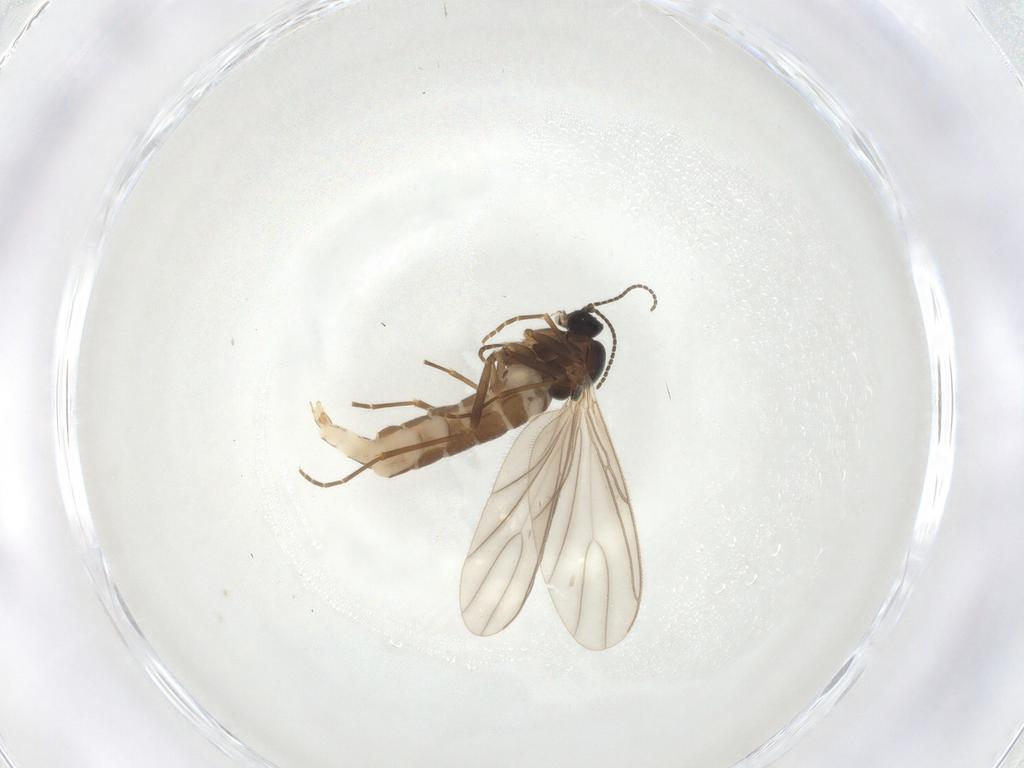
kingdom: Animalia
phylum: Arthropoda
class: Insecta
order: Diptera
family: Sciaridae
